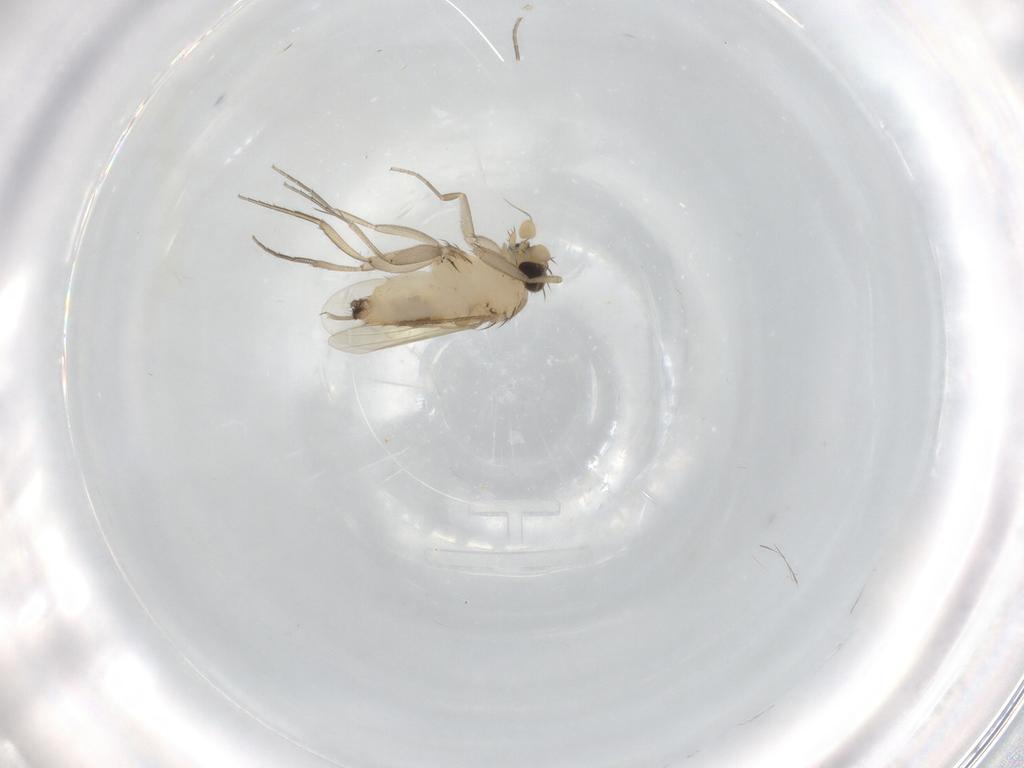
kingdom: Animalia
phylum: Arthropoda
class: Insecta
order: Diptera
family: Phoridae
